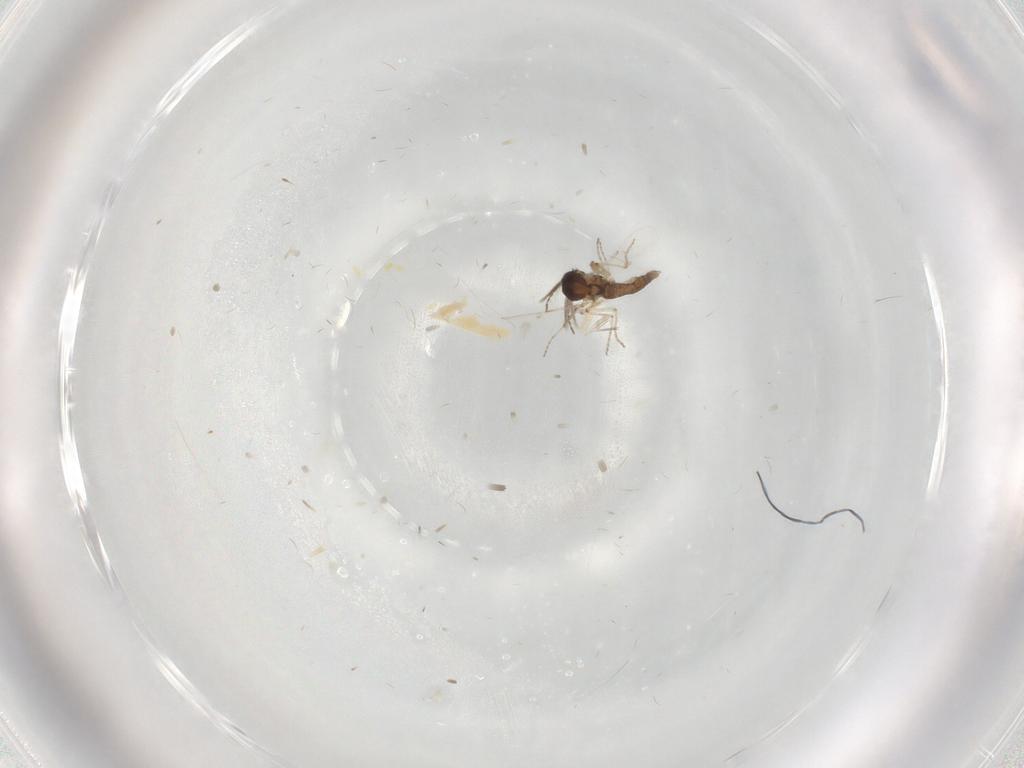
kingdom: Animalia
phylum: Arthropoda
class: Insecta
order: Diptera
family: Ceratopogonidae
